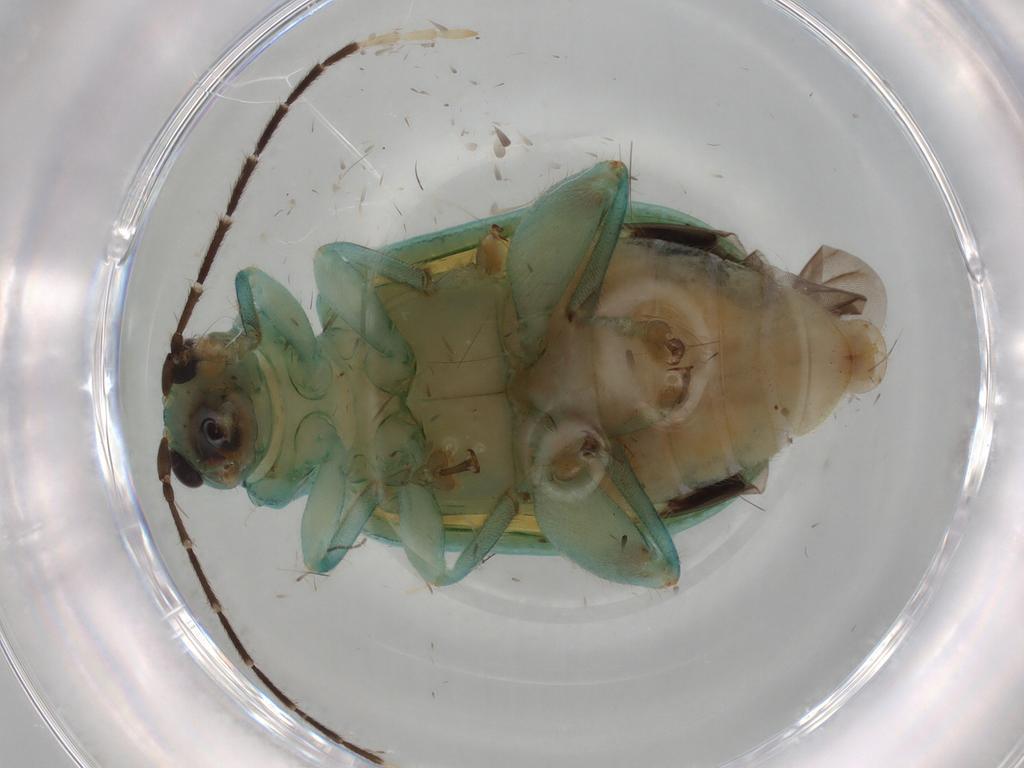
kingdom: Animalia
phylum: Arthropoda
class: Insecta
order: Coleoptera
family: Chrysomelidae
